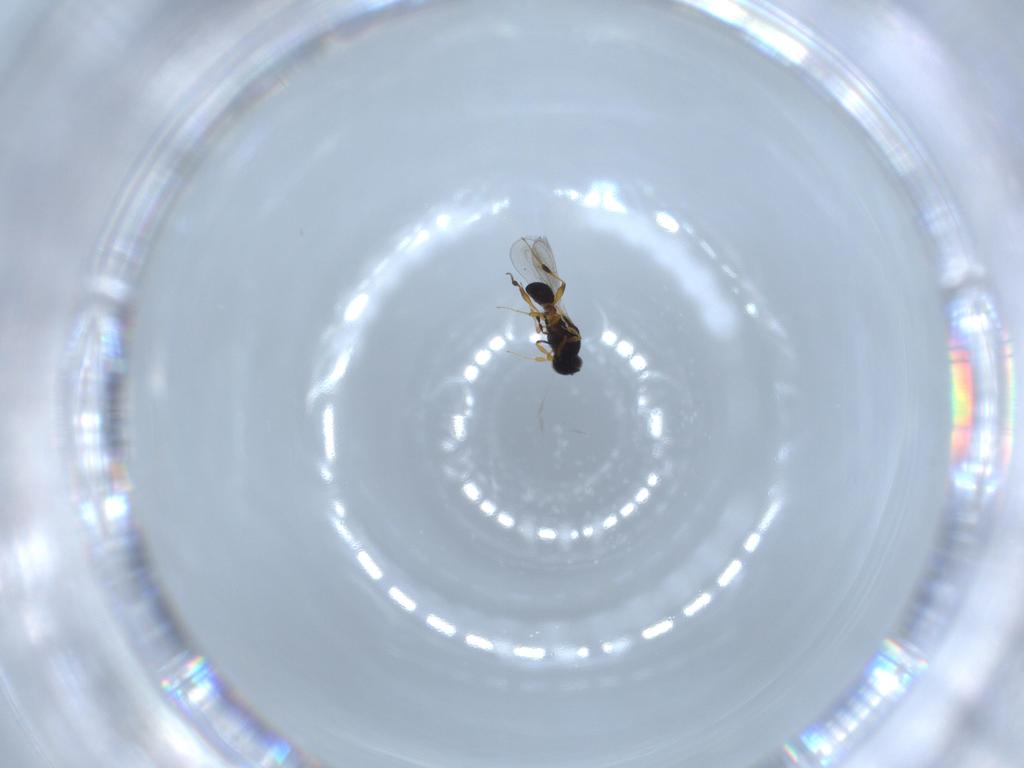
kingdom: Animalia
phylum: Arthropoda
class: Insecta
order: Hymenoptera
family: Platygastridae
